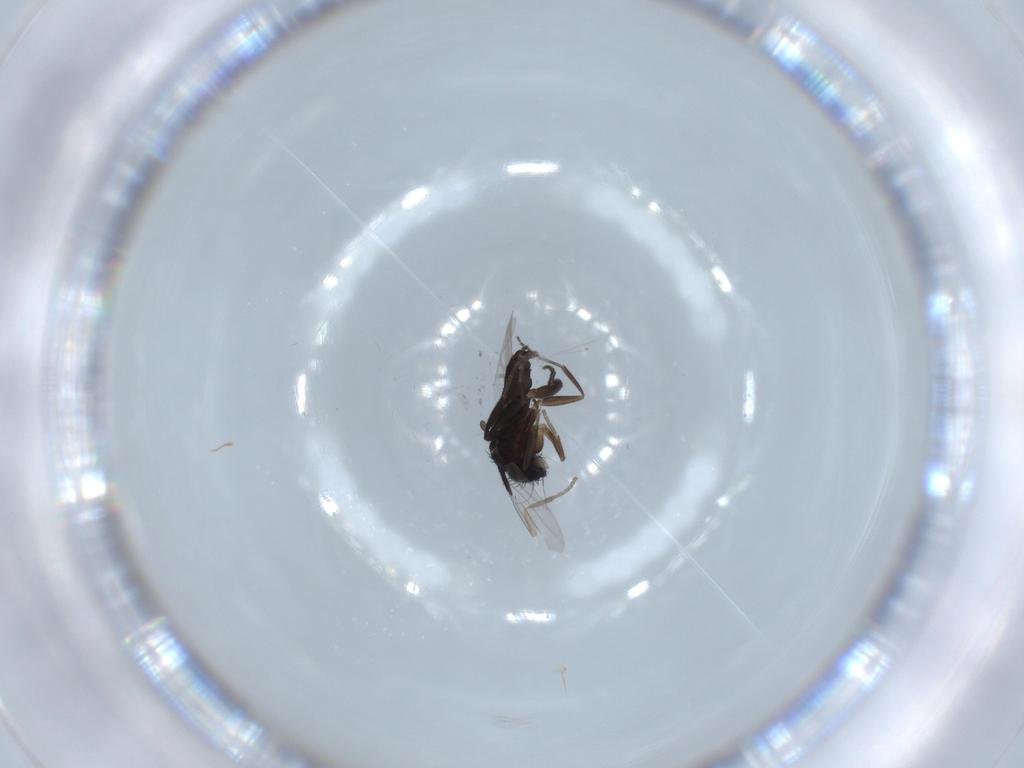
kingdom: Animalia
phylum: Arthropoda
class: Insecta
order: Diptera
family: Phoridae
